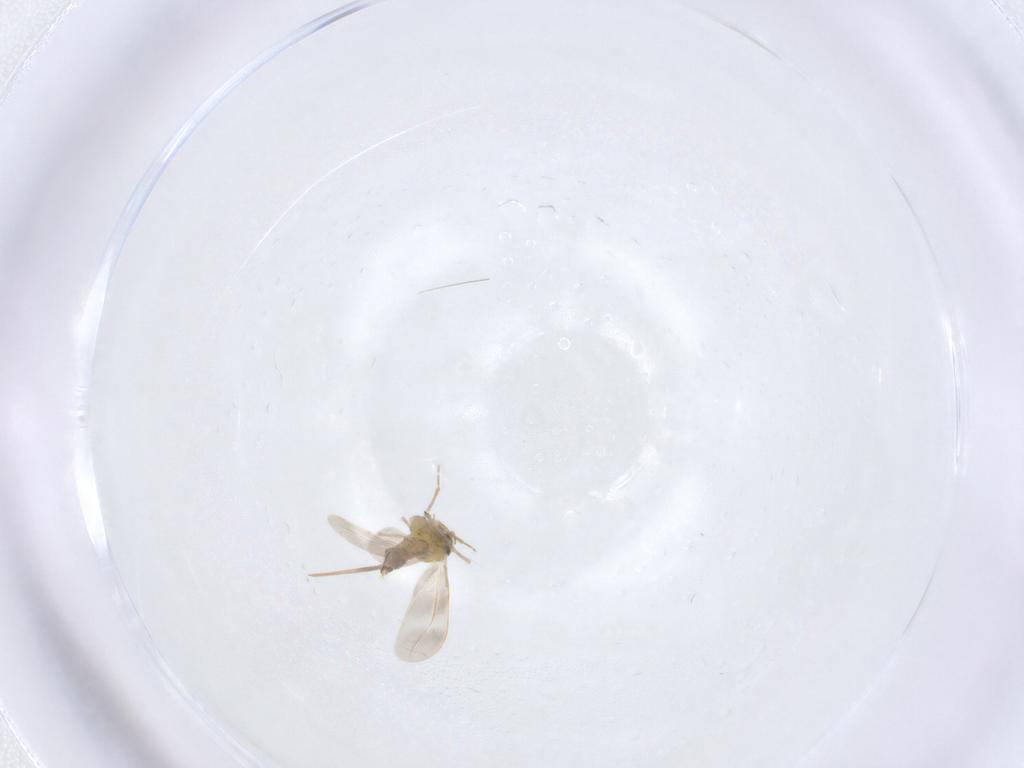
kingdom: Animalia
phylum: Arthropoda
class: Insecta
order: Hemiptera
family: Aleyrodidae
